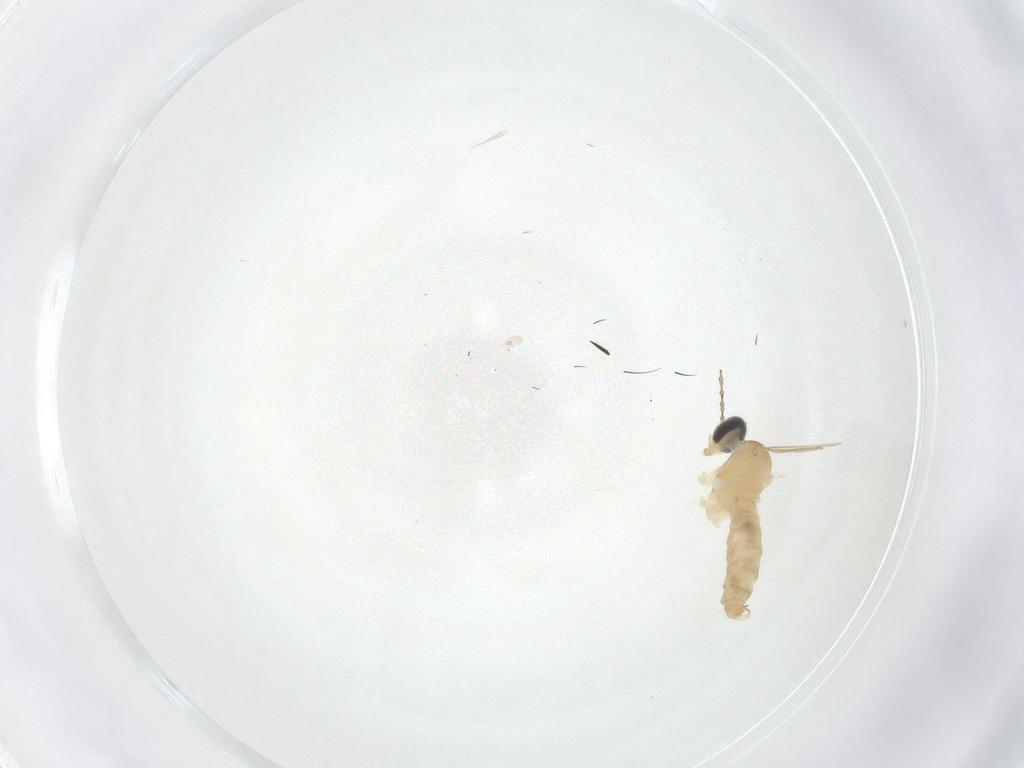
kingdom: Animalia
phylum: Arthropoda
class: Insecta
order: Diptera
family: Cecidomyiidae
